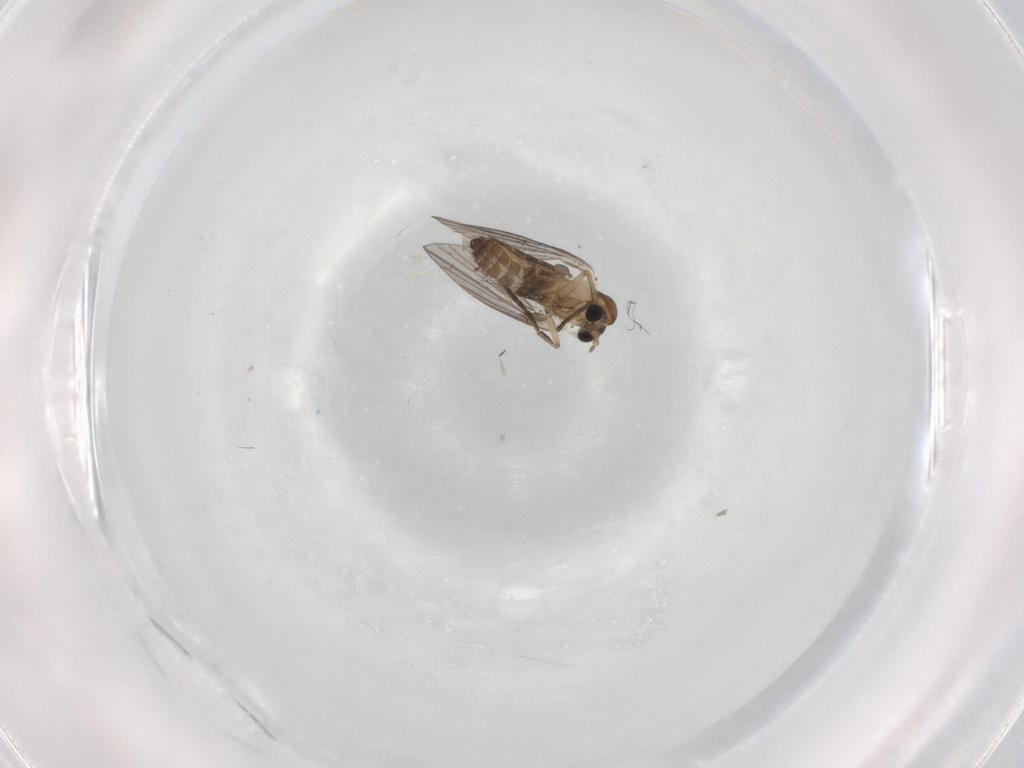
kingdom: Animalia
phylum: Arthropoda
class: Insecta
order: Diptera
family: Psychodidae
